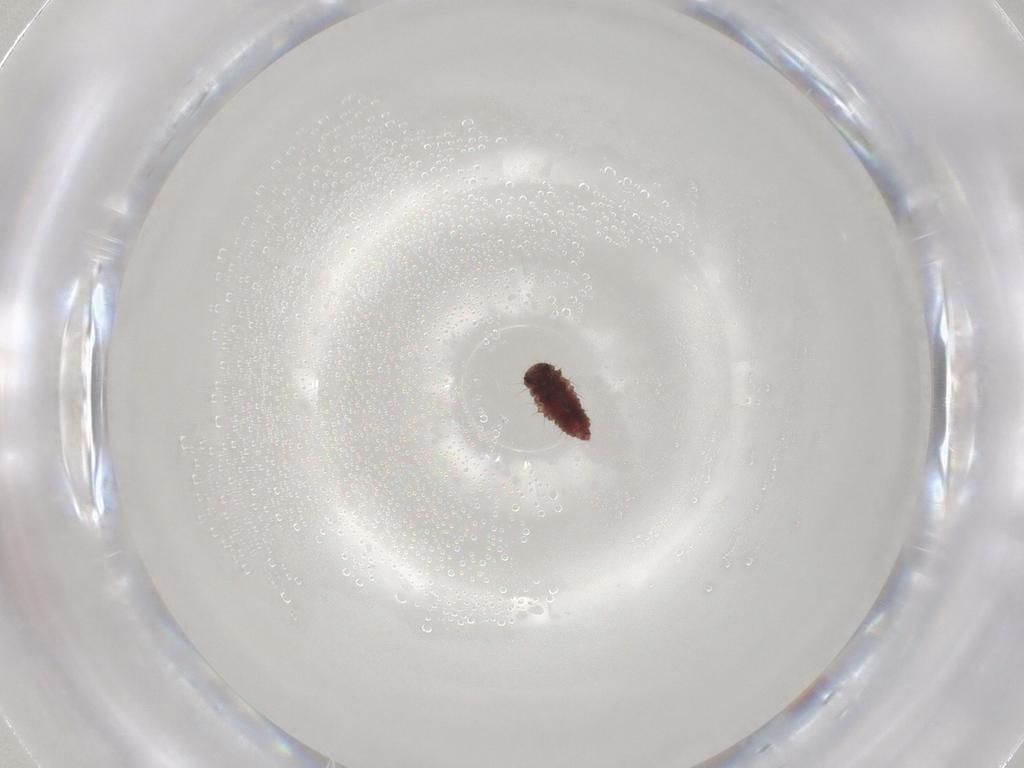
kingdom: Animalia
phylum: Arthropoda
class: Insecta
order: Coleoptera
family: Coccinellidae
